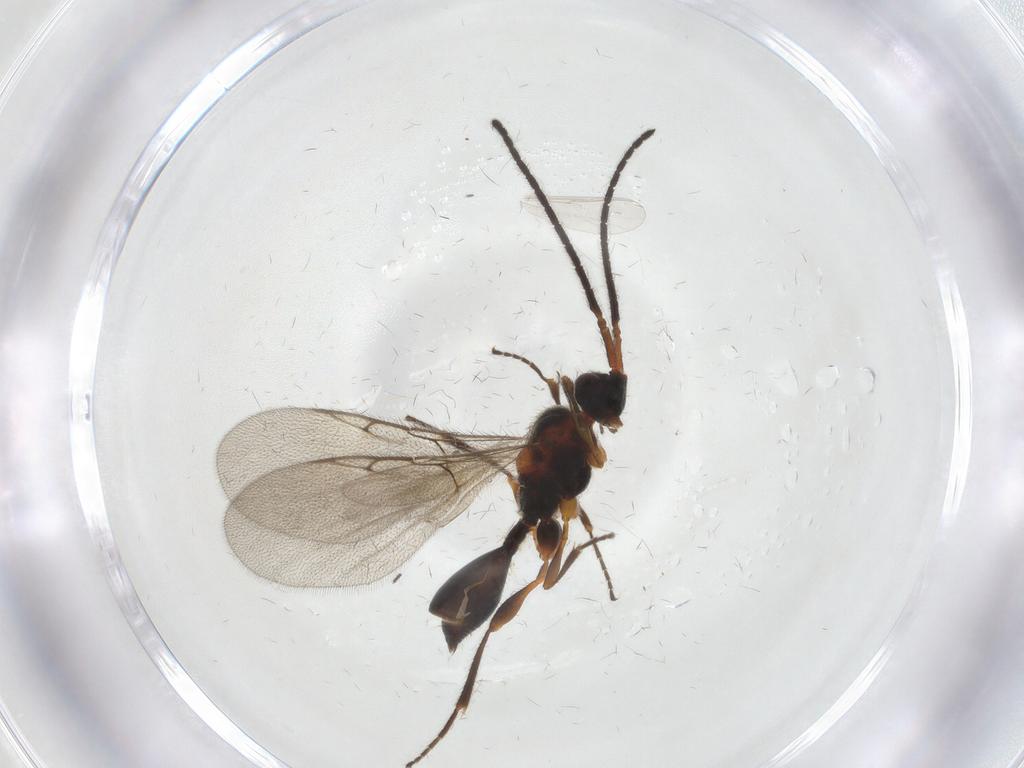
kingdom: Animalia
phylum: Arthropoda
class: Insecta
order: Hymenoptera
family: Diapriidae
